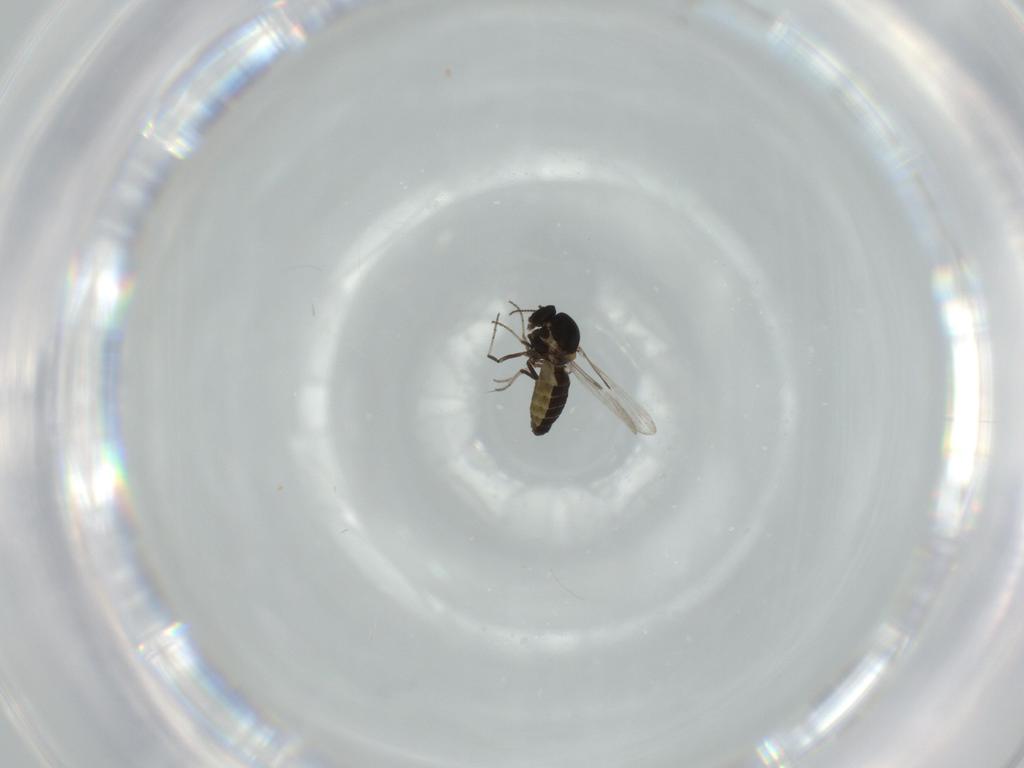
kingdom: Animalia
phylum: Arthropoda
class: Insecta
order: Diptera
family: Ceratopogonidae
